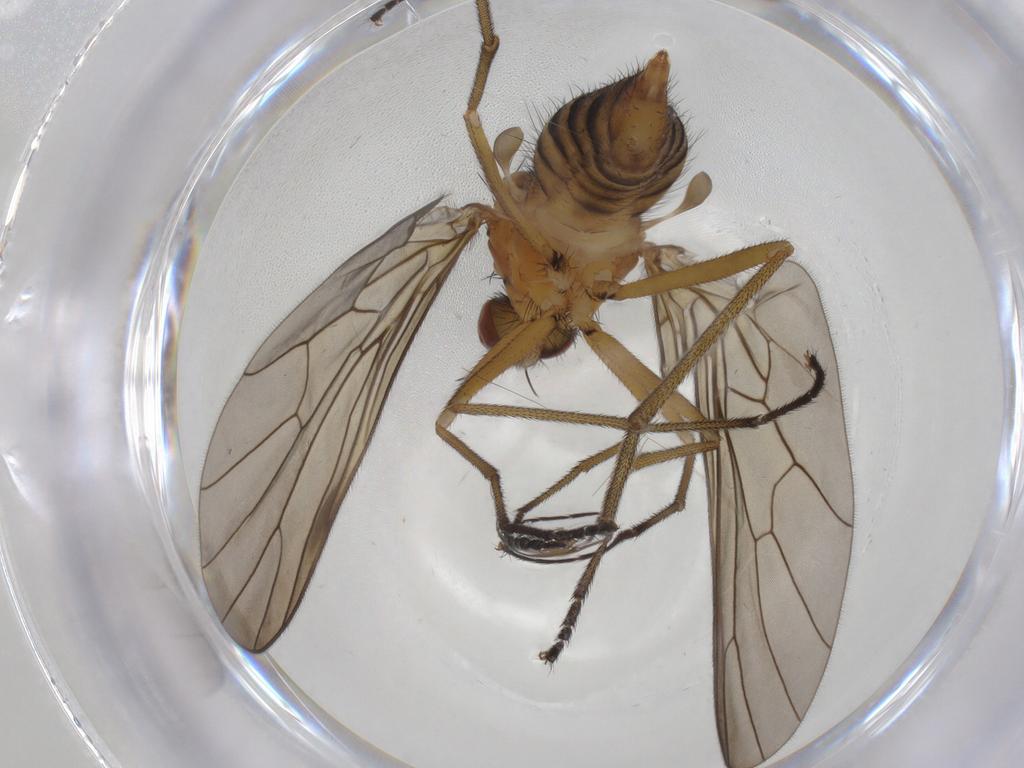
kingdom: Animalia
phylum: Arthropoda
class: Insecta
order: Diptera
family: Brachystomatidae
